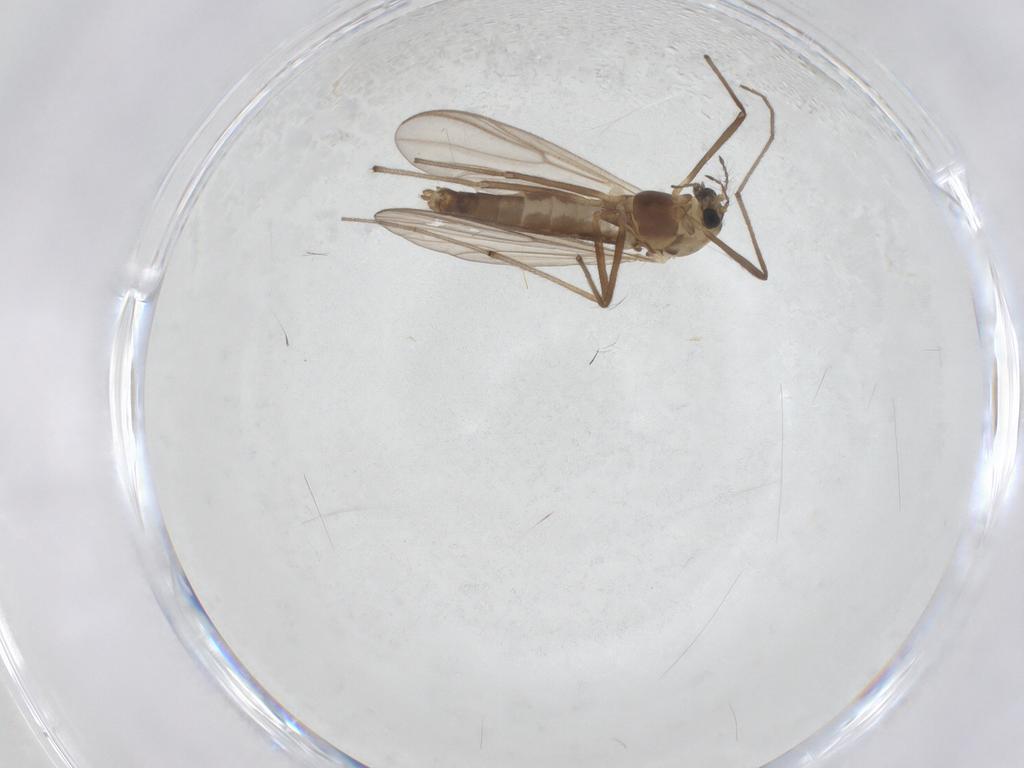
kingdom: Animalia
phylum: Arthropoda
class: Insecta
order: Diptera
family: Chironomidae
